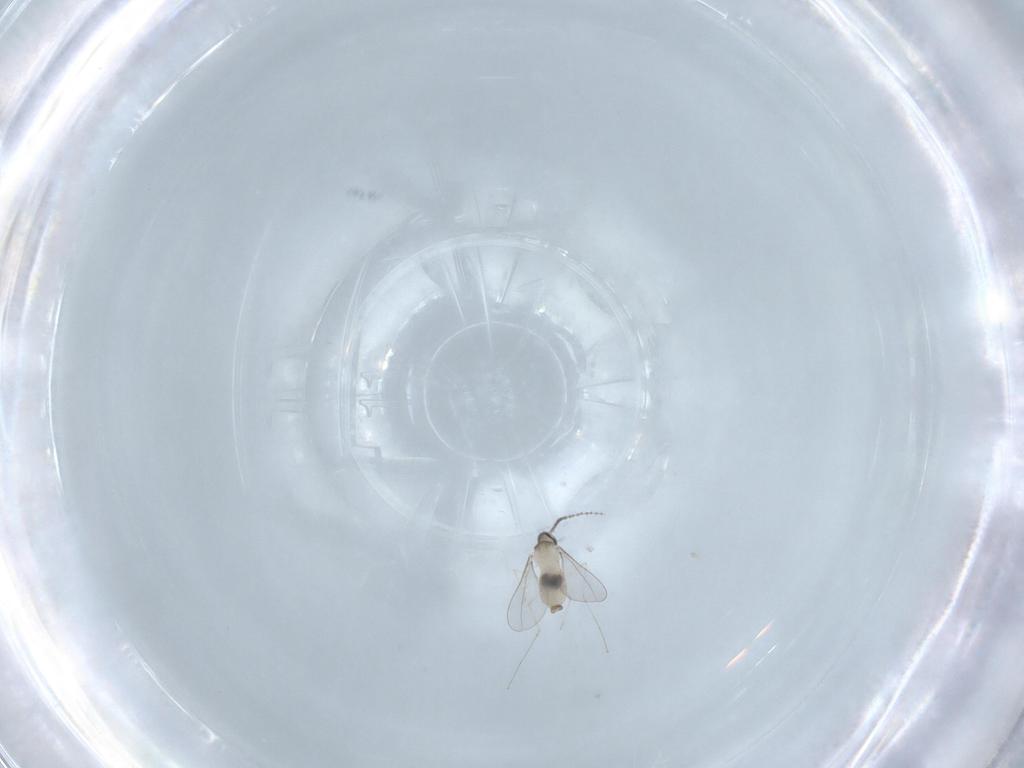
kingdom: Animalia
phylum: Arthropoda
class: Insecta
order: Diptera
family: Cecidomyiidae
